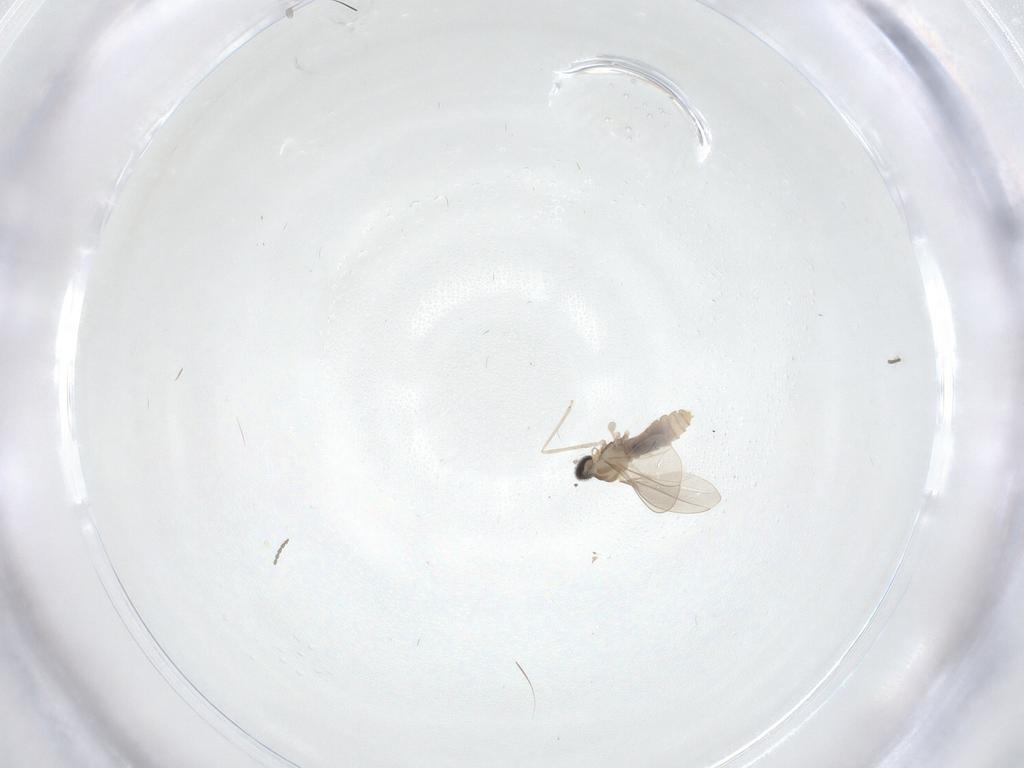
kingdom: Animalia
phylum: Arthropoda
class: Insecta
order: Diptera
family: Cecidomyiidae
